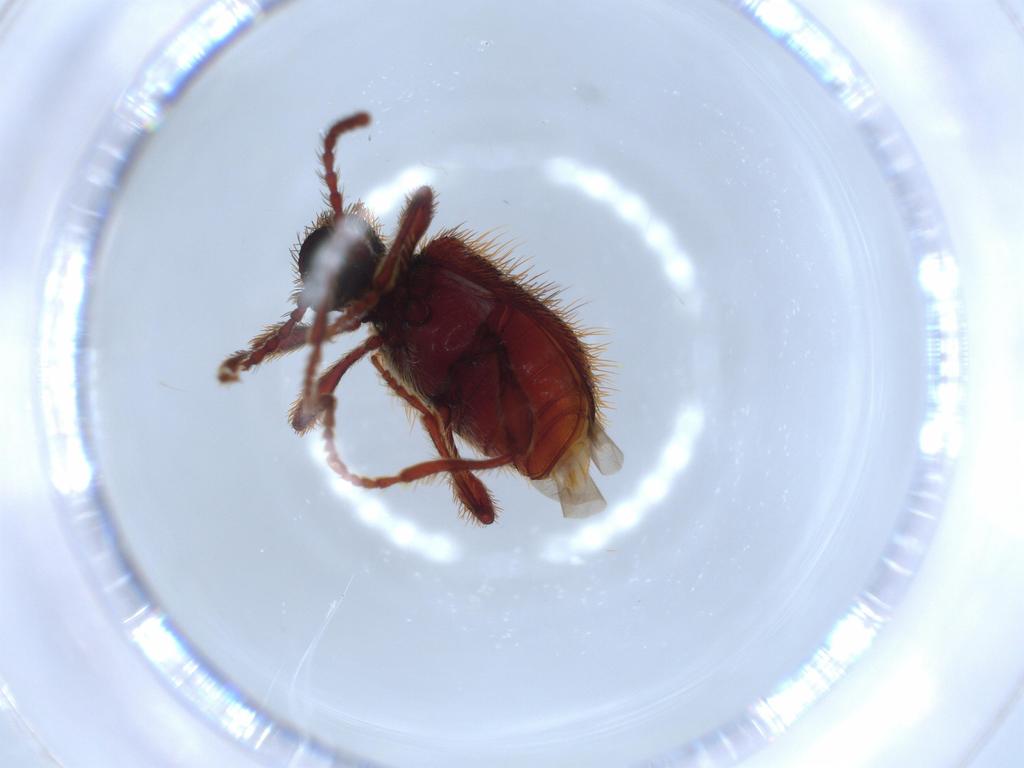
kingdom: Animalia
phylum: Arthropoda
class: Insecta
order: Coleoptera
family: Ptinidae
